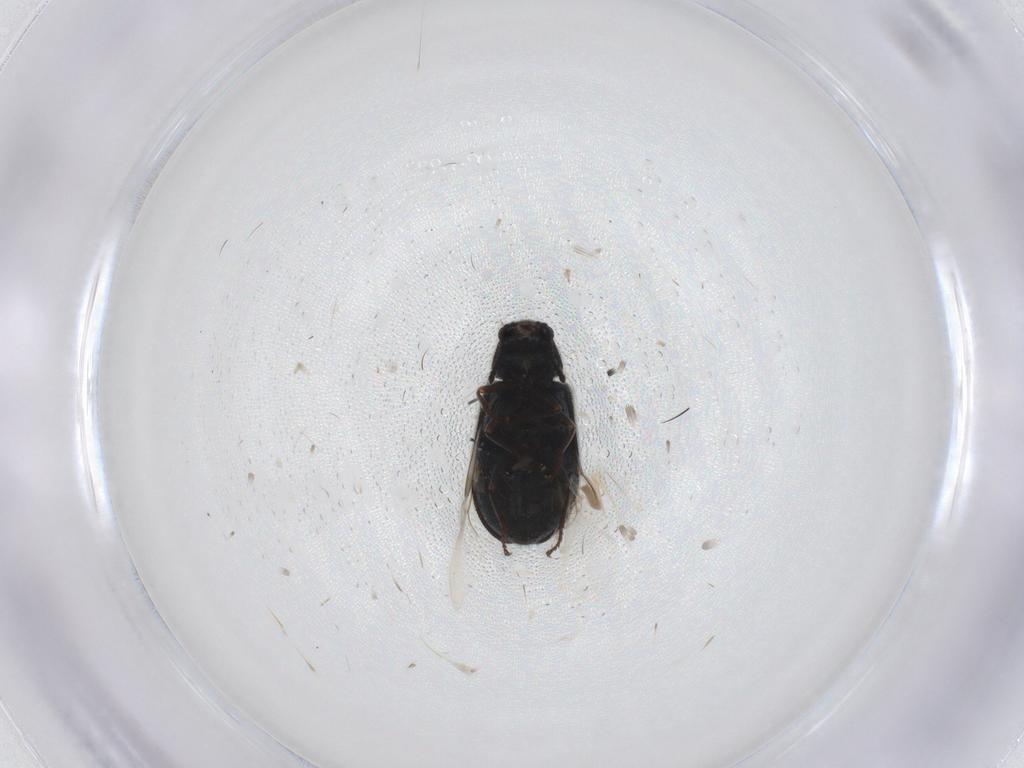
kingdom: Animalia
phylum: Arthropoda
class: Insecta
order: Coleoptera
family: Melyridae
